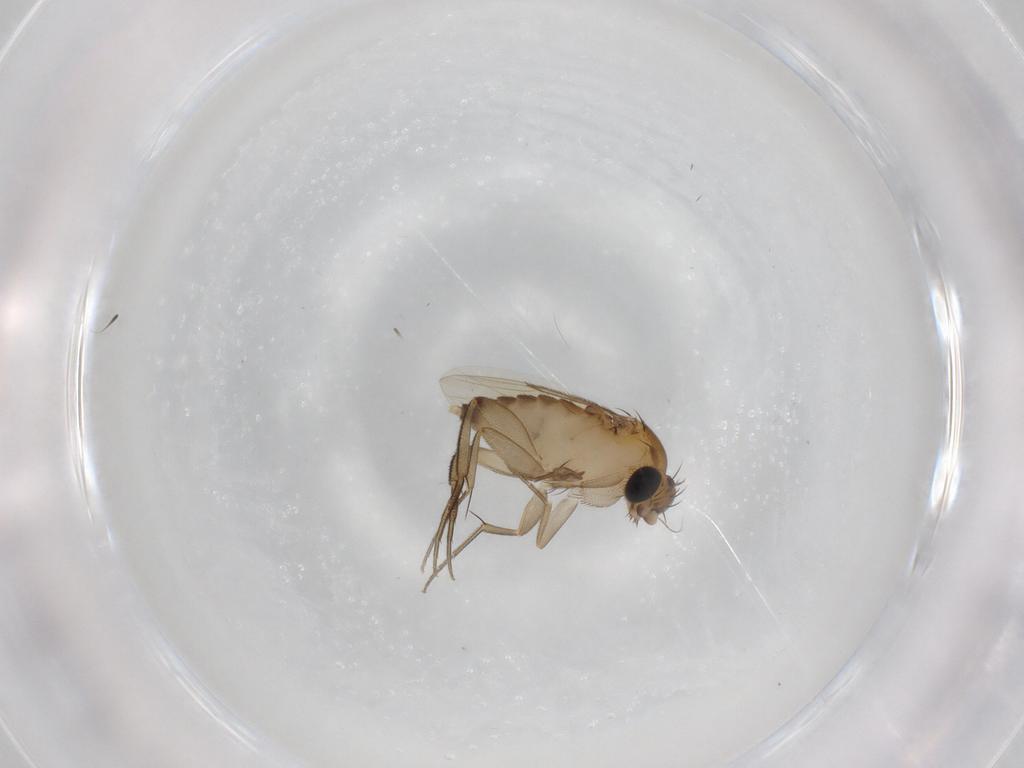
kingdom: Animalia
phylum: Arthropoda
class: Insecta
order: Diptera
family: Phoridae
